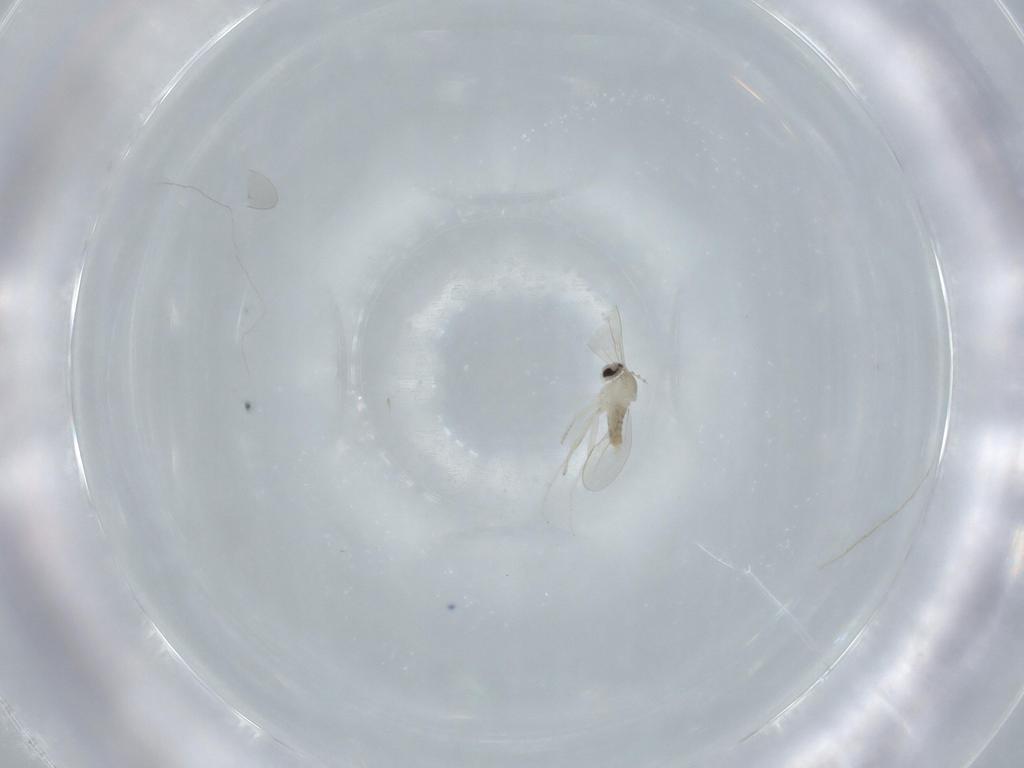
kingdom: Animalia
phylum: Arthropoda
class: Insecta
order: Diptera
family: Cecidomyiidae
